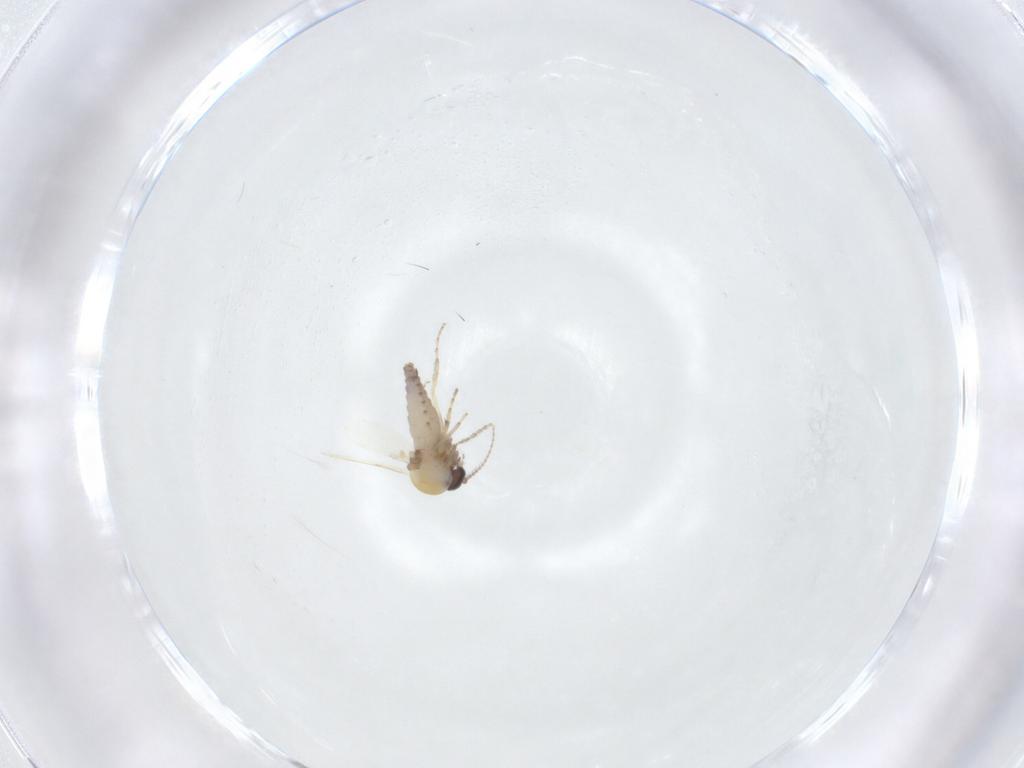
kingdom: Animalia
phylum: Arthropoda
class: Insecta
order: Diptera
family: Ceratopogonidae
